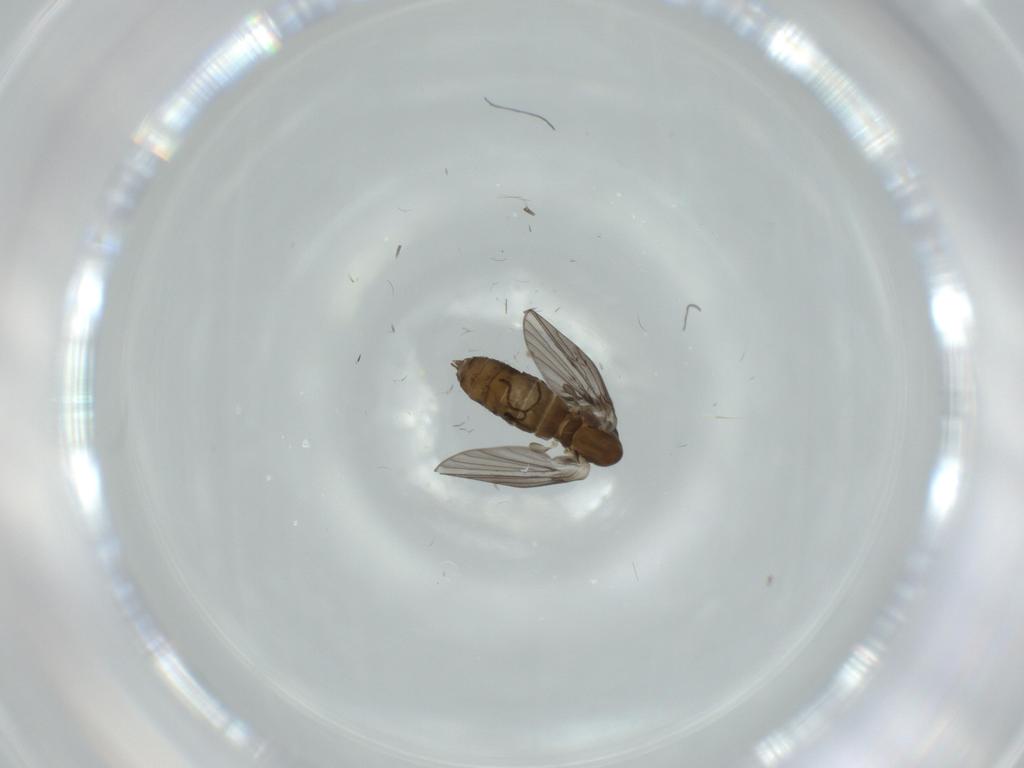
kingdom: Animalia
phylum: Arthropoda
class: Insecta
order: Diptera
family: Psychodidae
